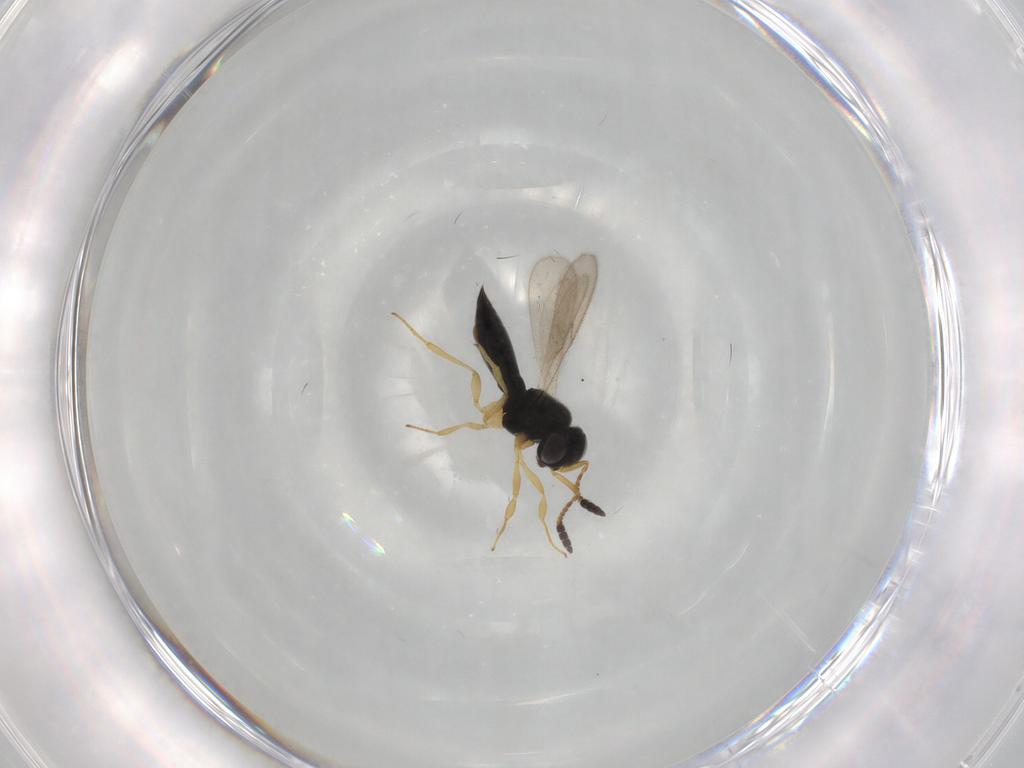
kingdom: Animalia
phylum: Arthropoda
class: Insecta
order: Hymenoptera
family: Scelionidae
